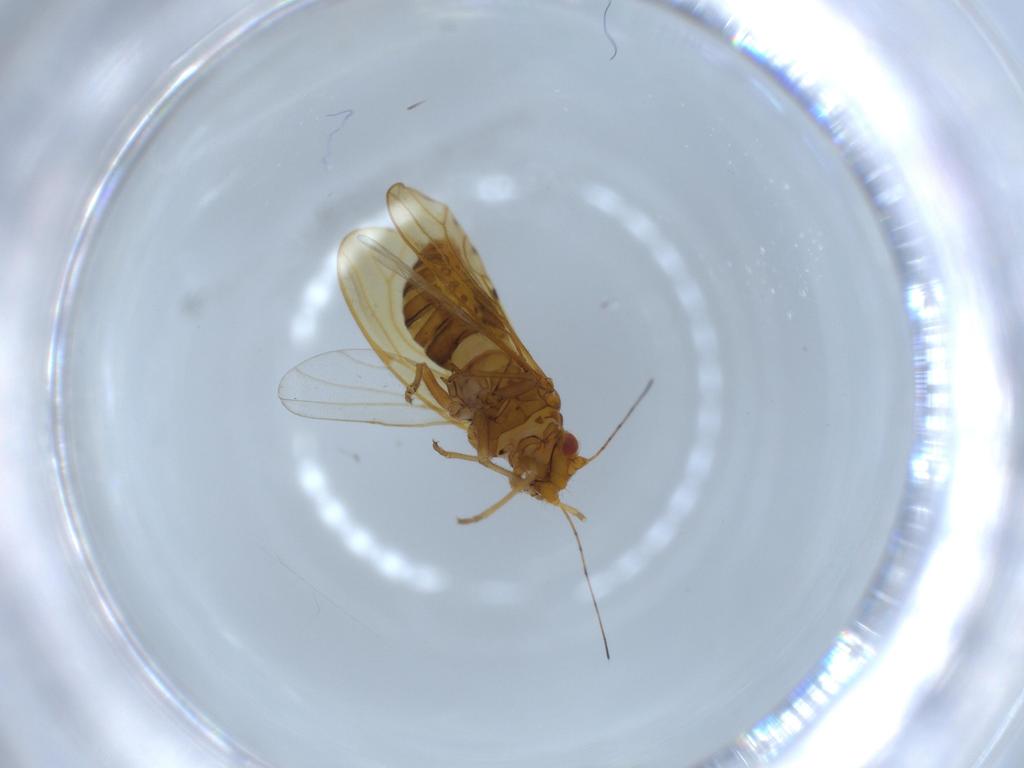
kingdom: Animalia
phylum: Arthropoda
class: Insecta
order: Hemiptera
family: Psylloidea_incertae_sedis
